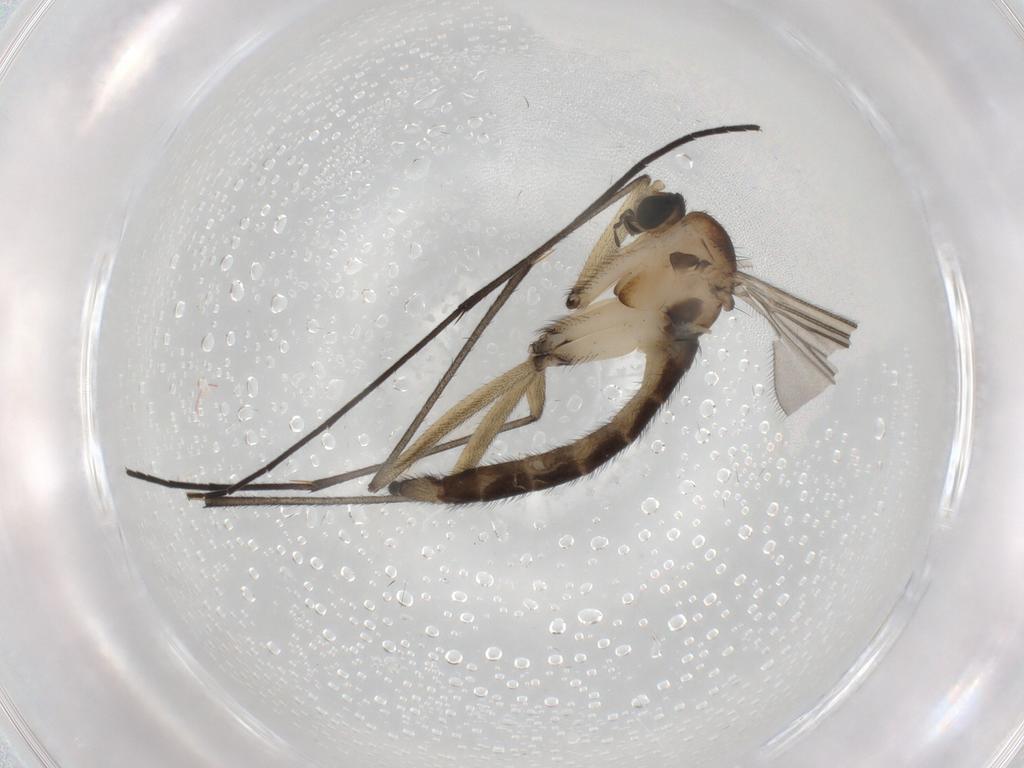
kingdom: Animalia
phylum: Arthropoda
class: Insecta
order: Diptera
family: Sciaridae
